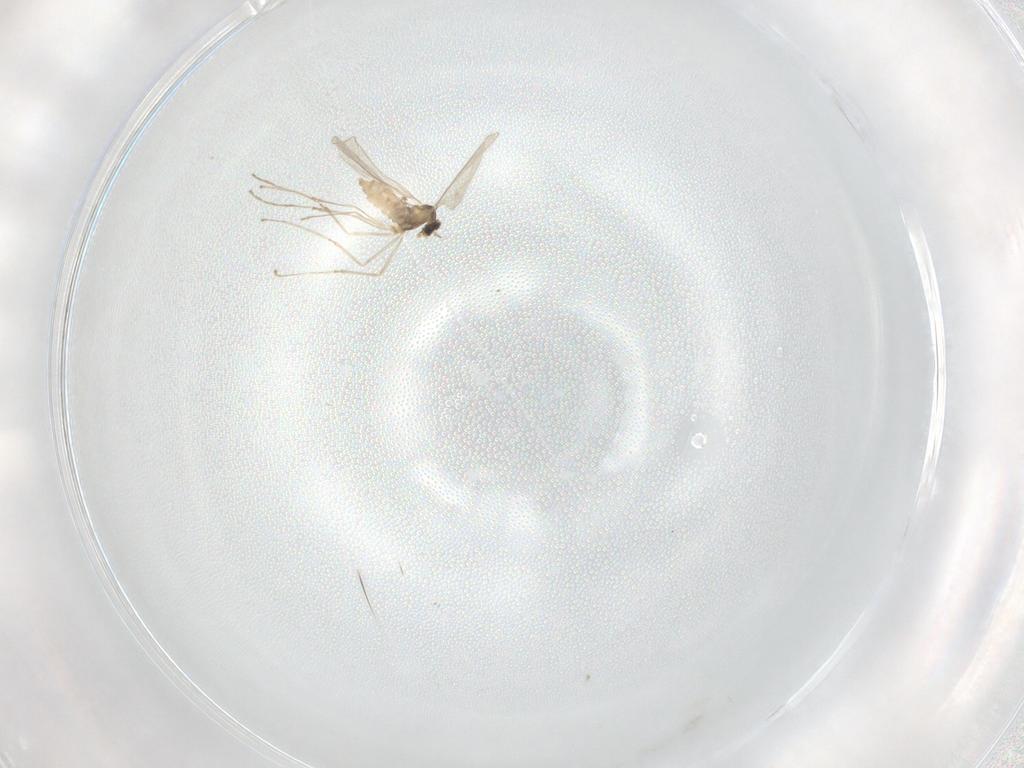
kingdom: Animalia
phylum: Arthropoda
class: Insecta
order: Diptera
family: Cecidomyiidae
